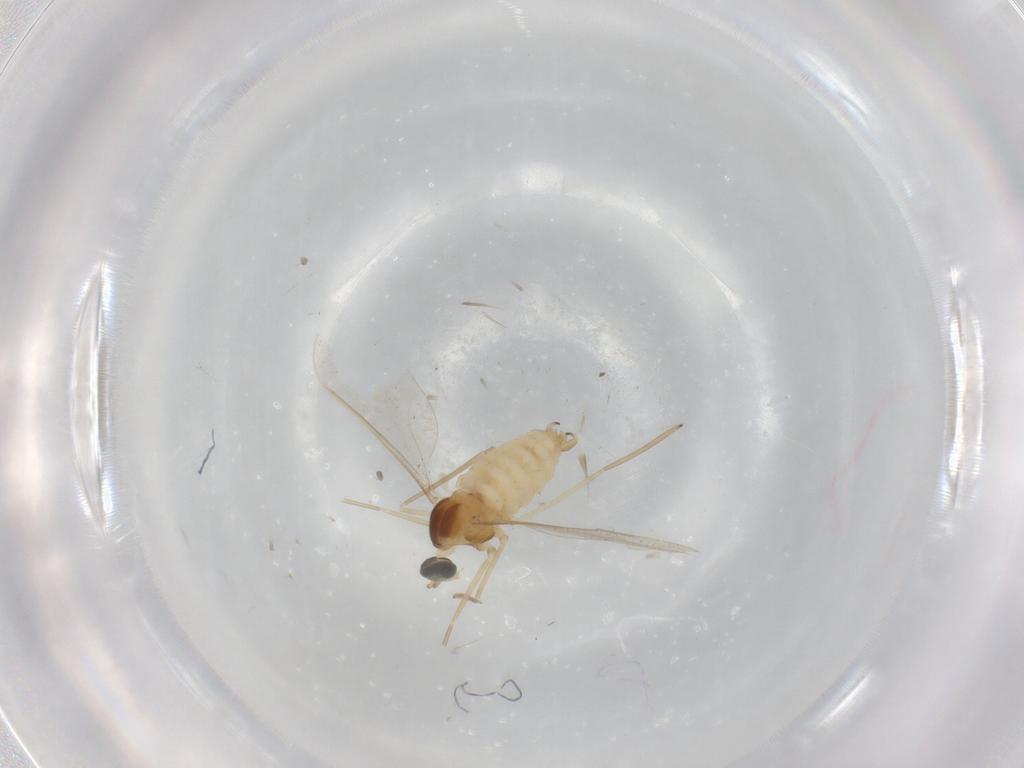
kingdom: Animalia
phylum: Arthropoda
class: Insecta
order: Diptera
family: Cecidomyiidae
